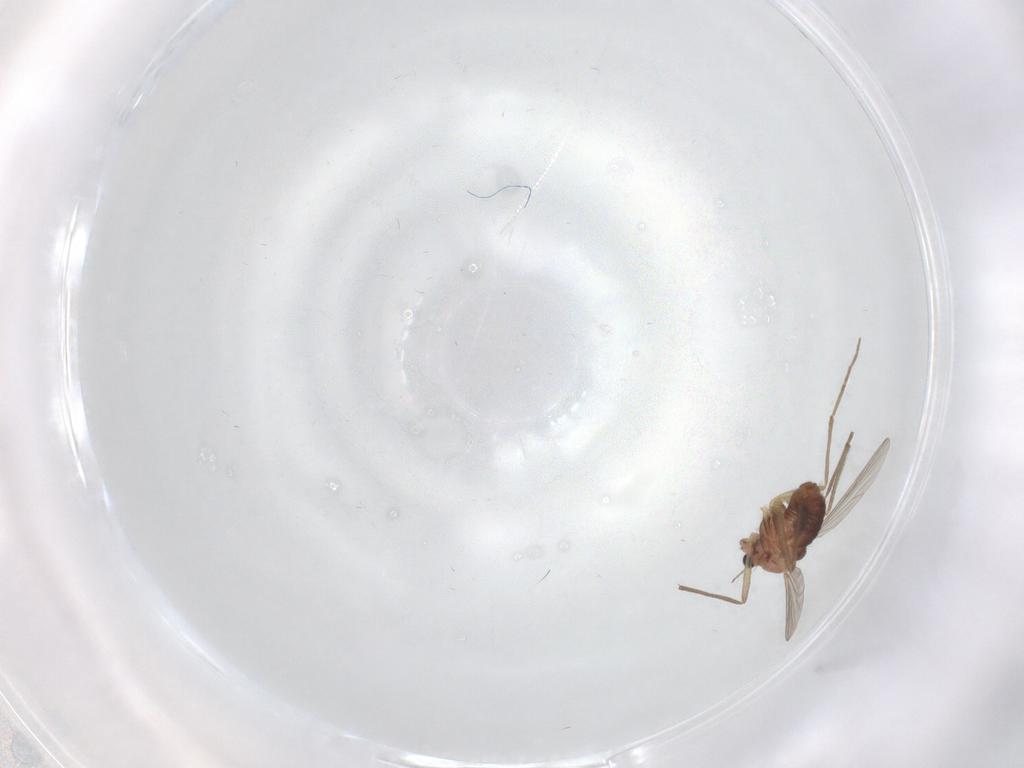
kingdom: Animalia
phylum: Arthropoda
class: Insecta
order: Diptera
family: Chironomidae
